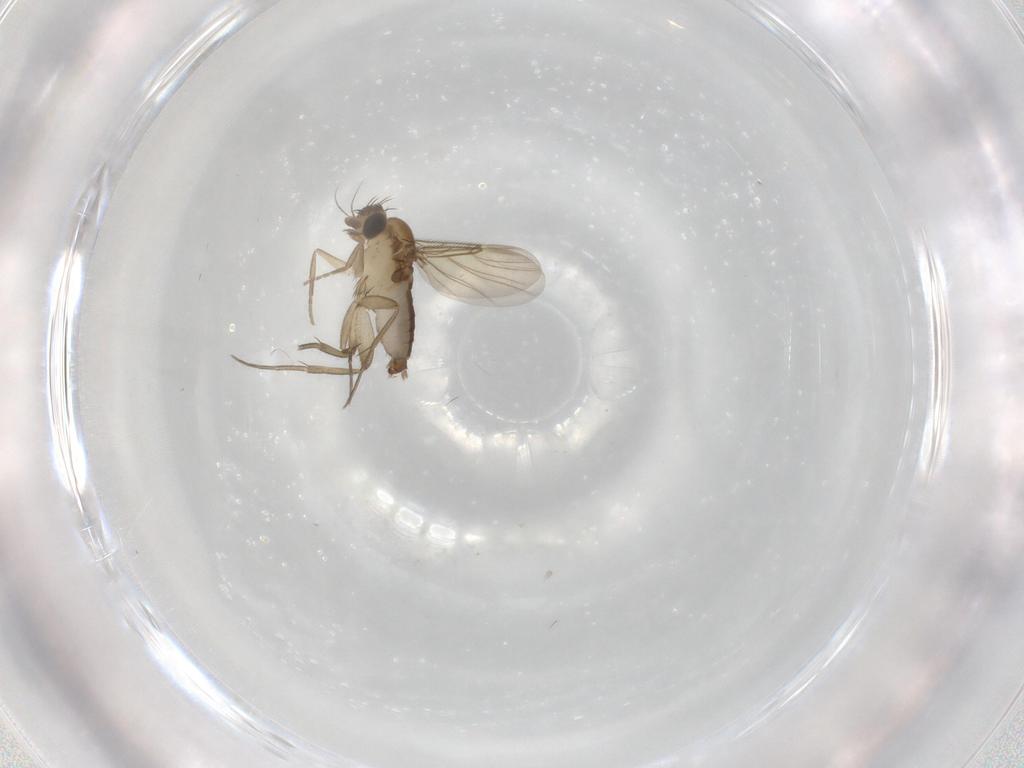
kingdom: Animalia
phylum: Arthropoda
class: Insecta
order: Diptera
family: Phoridae
